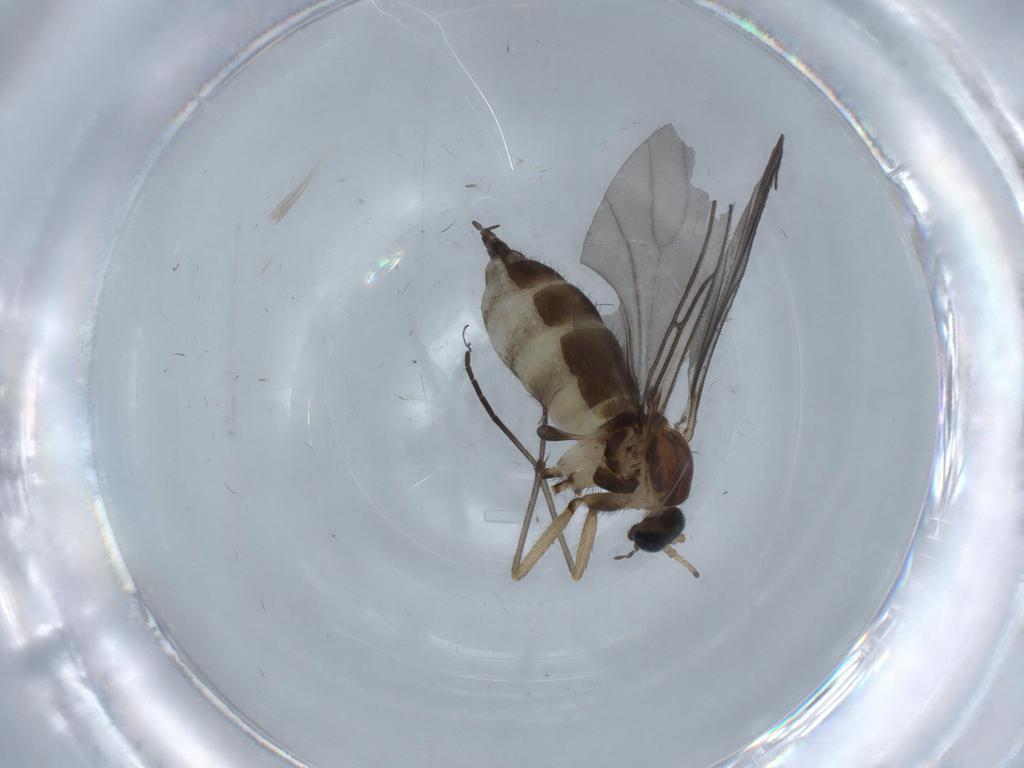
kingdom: Animalia
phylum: Arthropoda
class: Insecta
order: Diptera
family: Sciaridae
